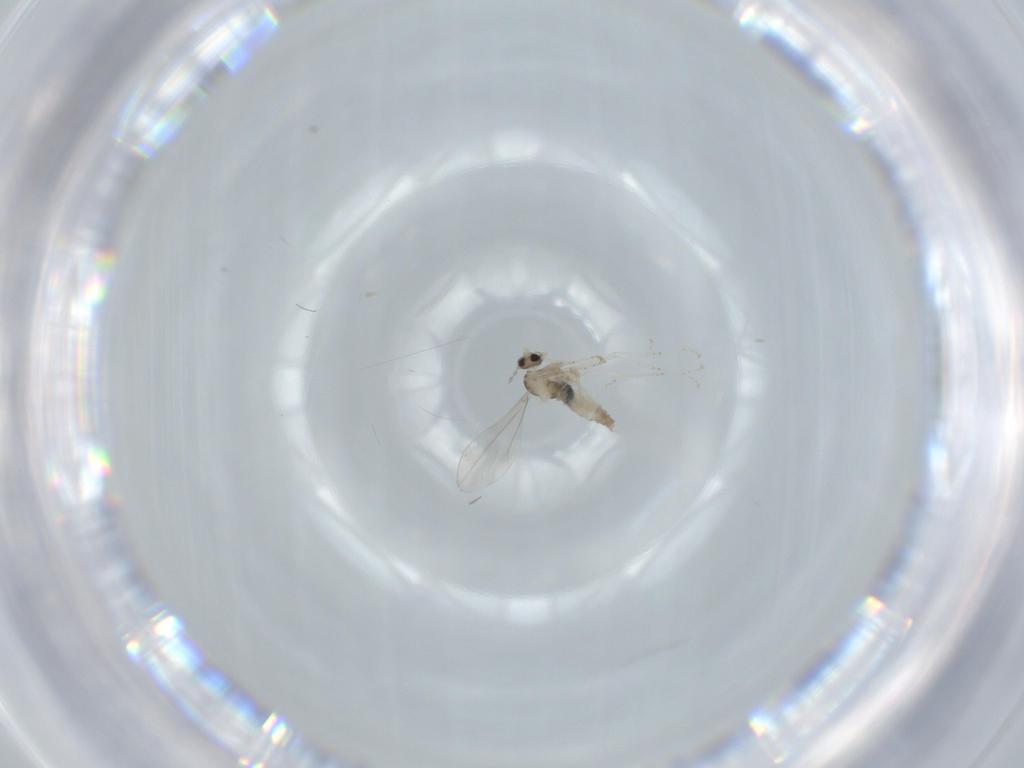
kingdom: Animalia
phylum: Arthropoda
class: Insecta
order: Diptera
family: Cecidomyiidae
